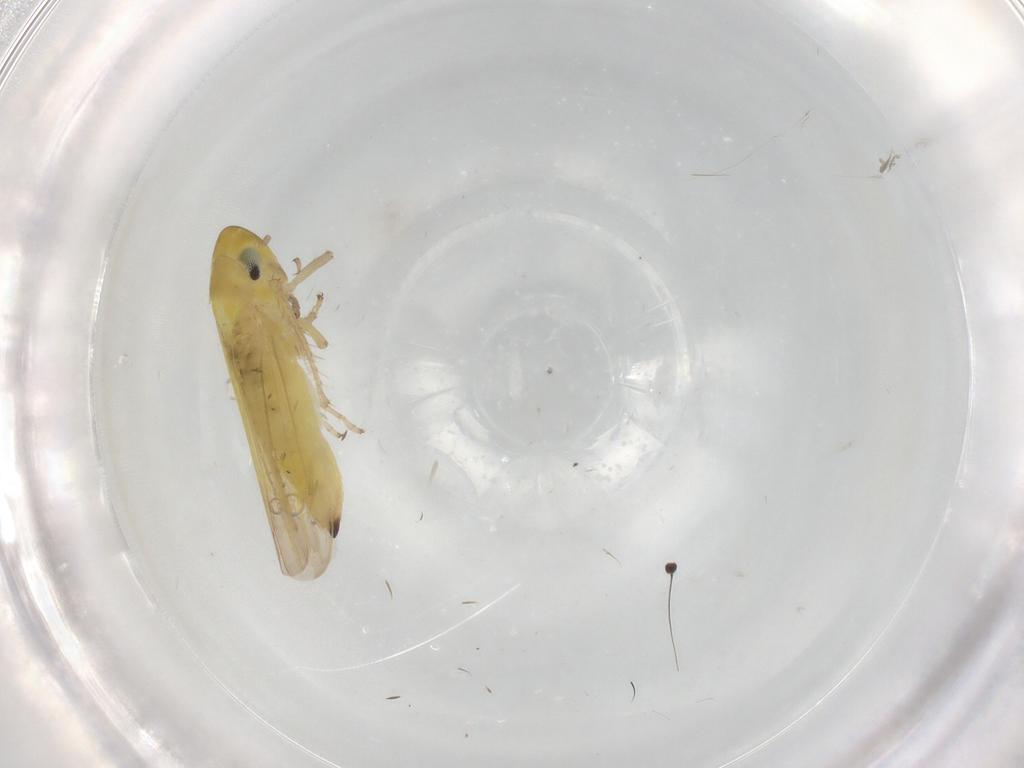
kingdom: Animalia
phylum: Arthropoda
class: Insecta
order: Hemiptera
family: Cicadellidae
